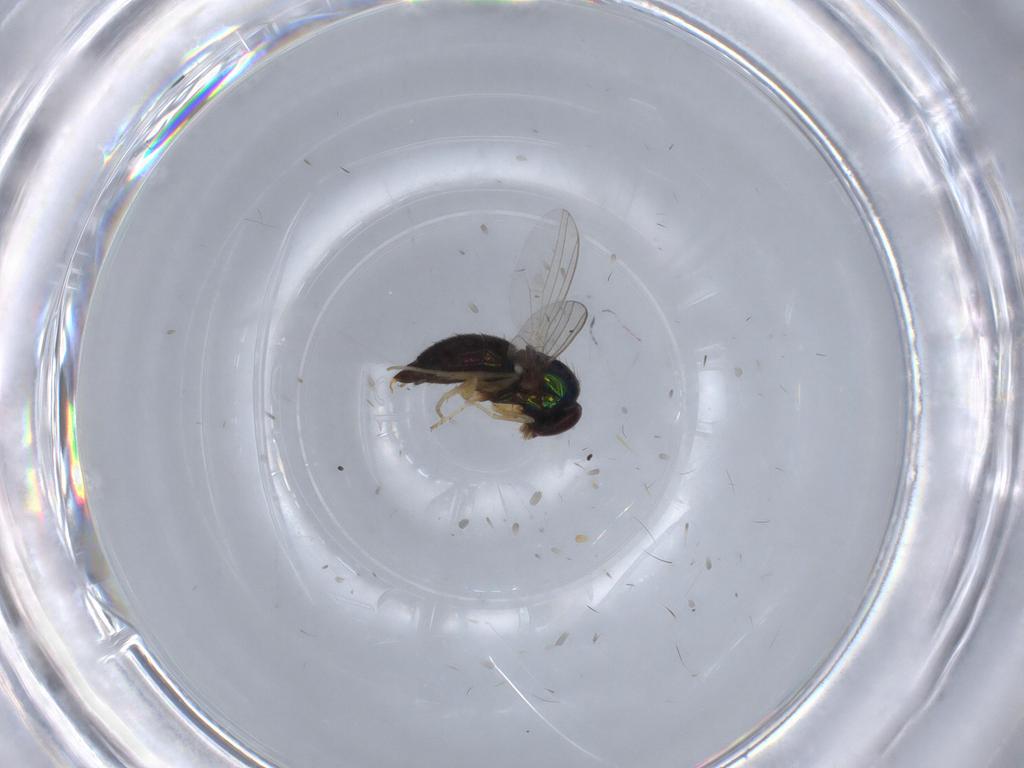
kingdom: Animalia
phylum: Arthropoda
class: Insecta
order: Diptera
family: Dolichopodidae
